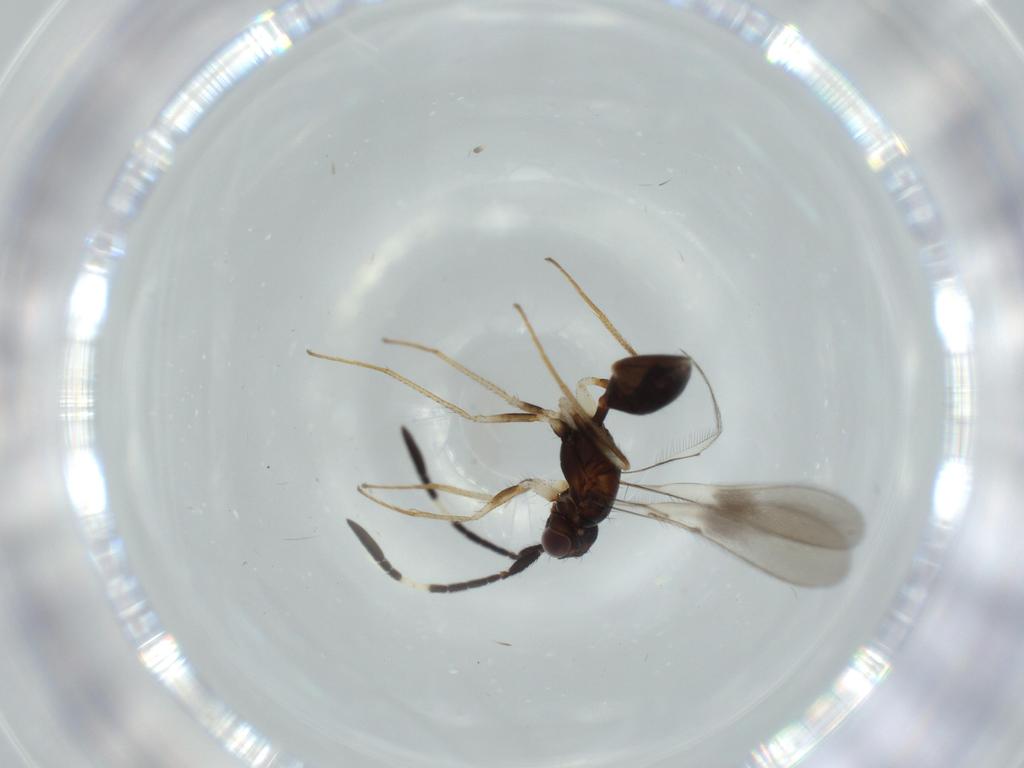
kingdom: Animalia
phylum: Arthropoda
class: Insecta
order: Hymenoptera
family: Mymaridae
